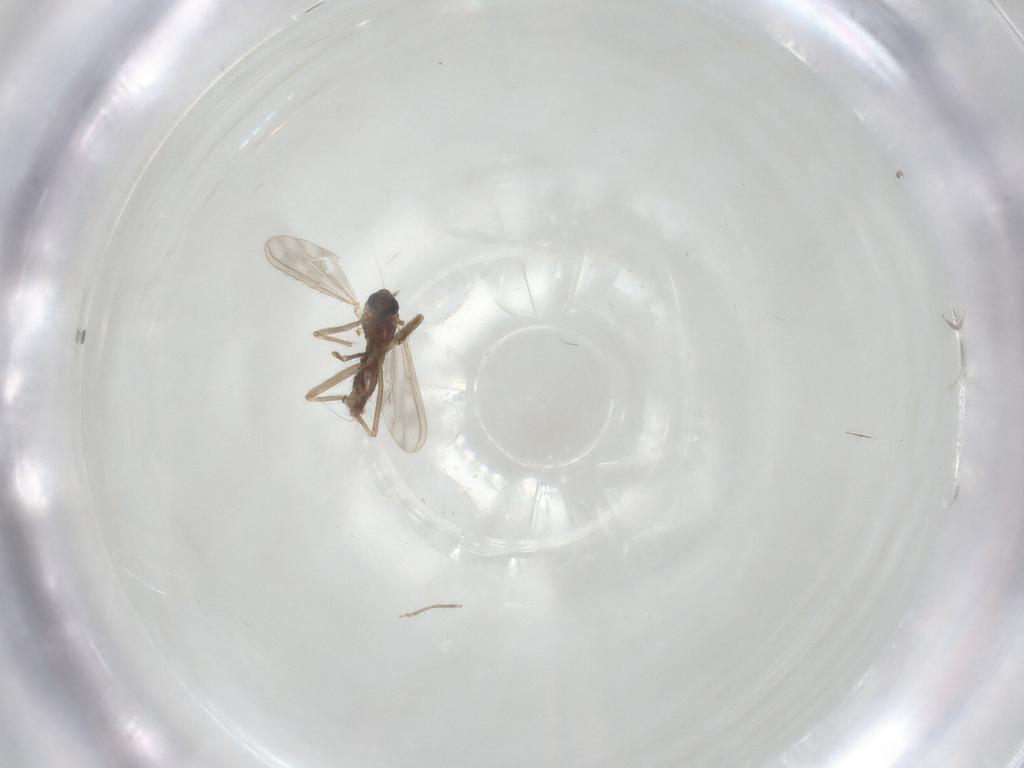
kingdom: Animalia
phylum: Arthropoda
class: Insecta
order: Diptera
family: Chironomidae
